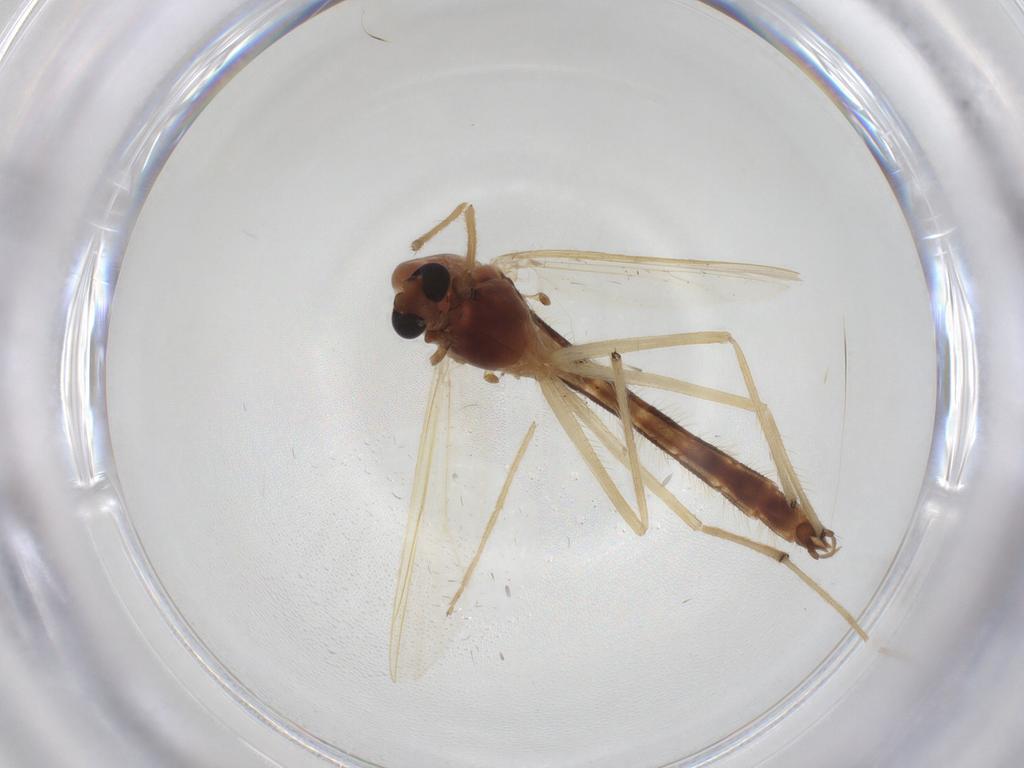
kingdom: Animalia
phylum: Arthropoda
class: Insecta
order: Diptera
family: Chironomidae
